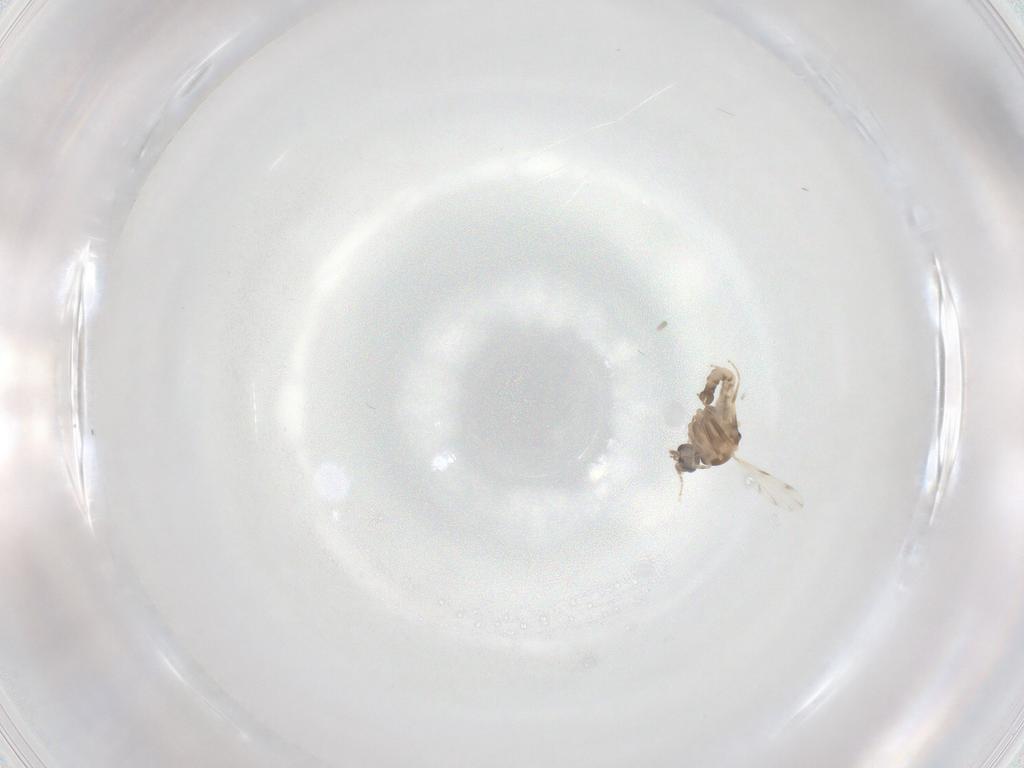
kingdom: Animalia
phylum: Arthropoda
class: Insecta
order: Diptera
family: Ceratopogonidae
